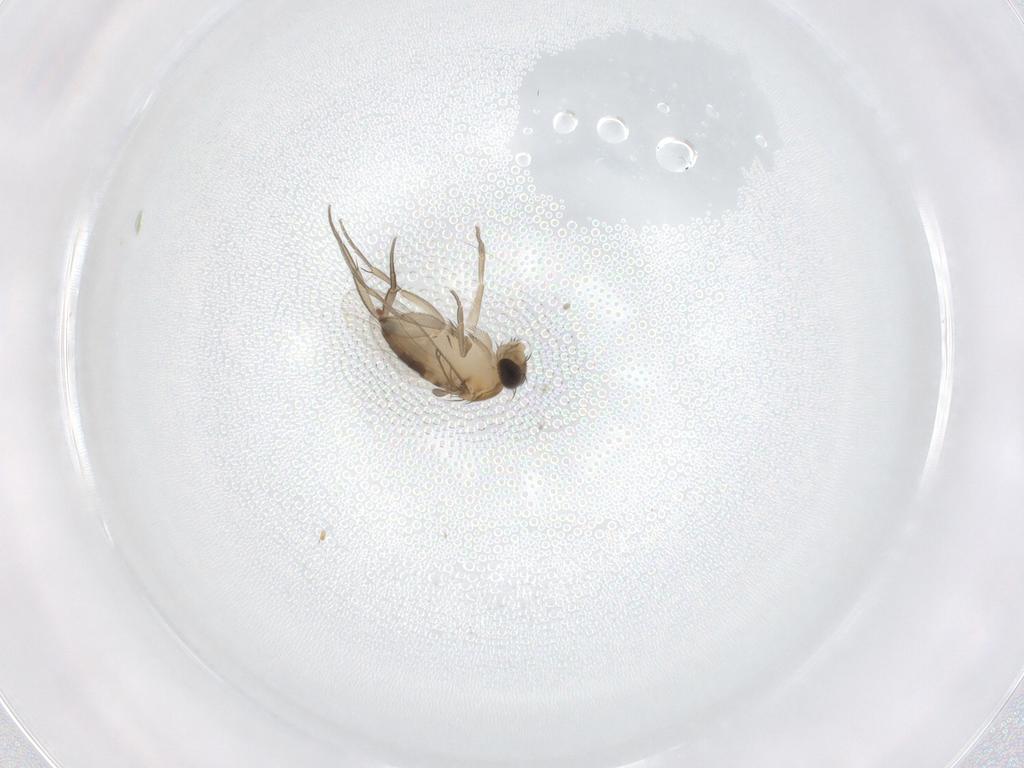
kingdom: Animalia
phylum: Arthropoda
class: Insecta
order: Diptera
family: Phoridae
